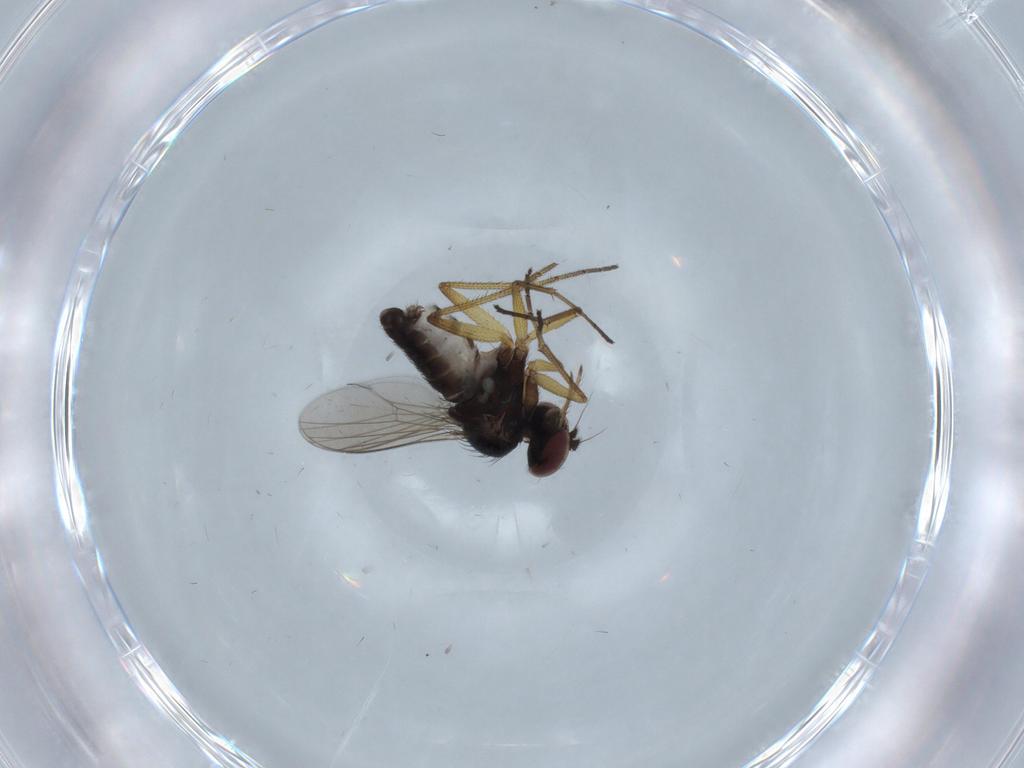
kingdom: Animalia
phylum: Arthropoda
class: Insecta
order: Diptera
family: Dolichopodidae
